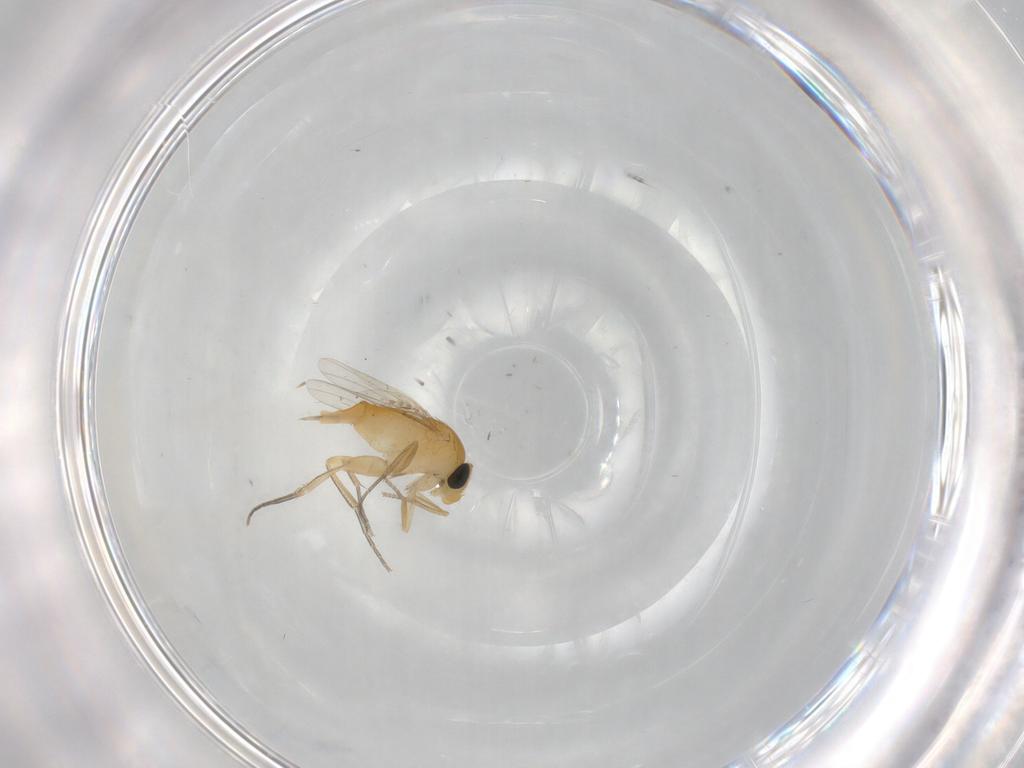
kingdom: Animalia
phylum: Arthropoda
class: Insecta
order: Diptera
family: Phoridae
